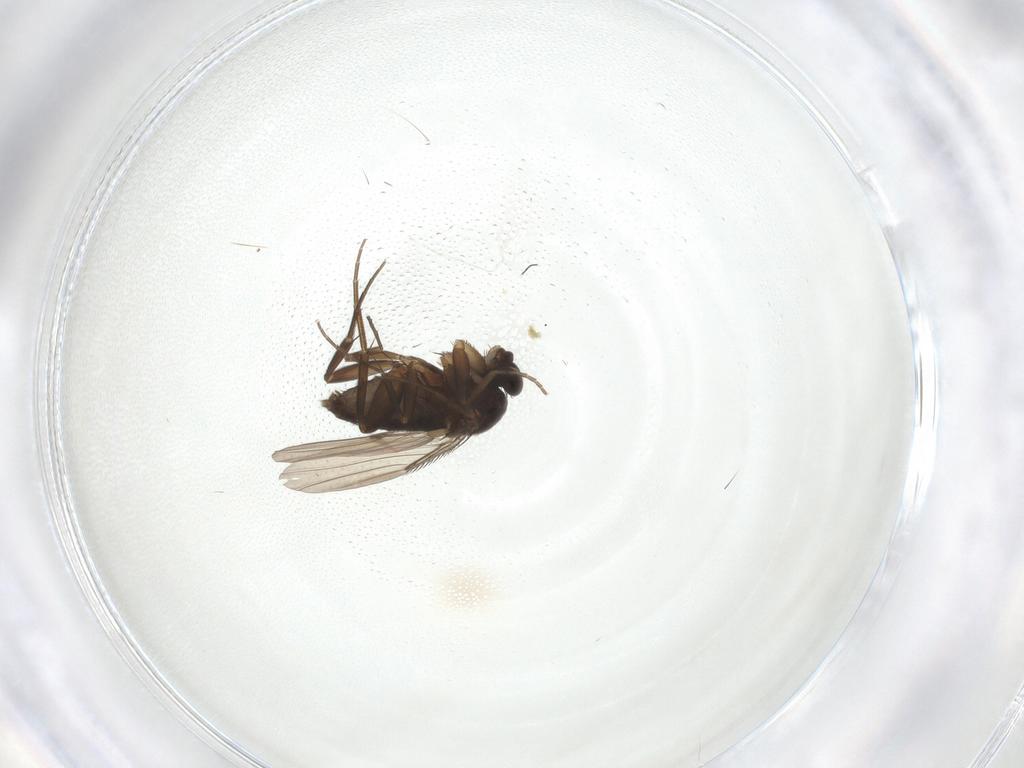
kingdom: Animalia
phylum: Arthropoda
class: Insecta
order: Diptera
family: Phoridae
